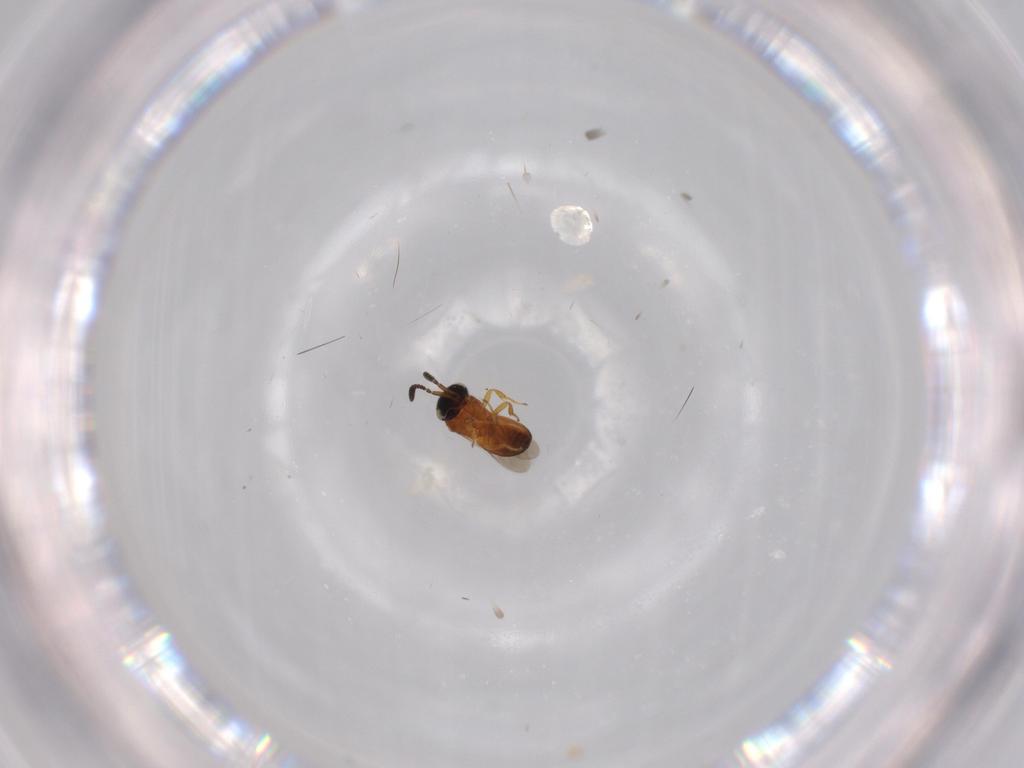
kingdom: Animalia
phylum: Arthropoda
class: Insecta
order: Hymenoptera
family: Scelionidae
